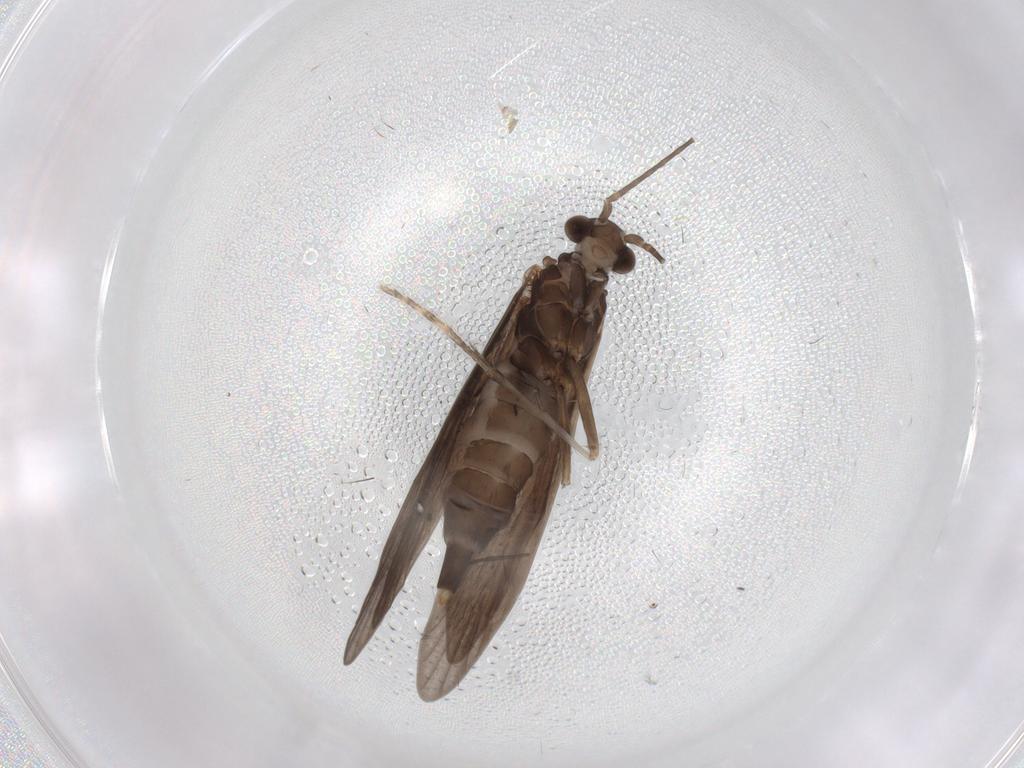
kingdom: Animalia
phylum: Arthropoda
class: Insecta
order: Trichoptera
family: Xiphocentronidae
